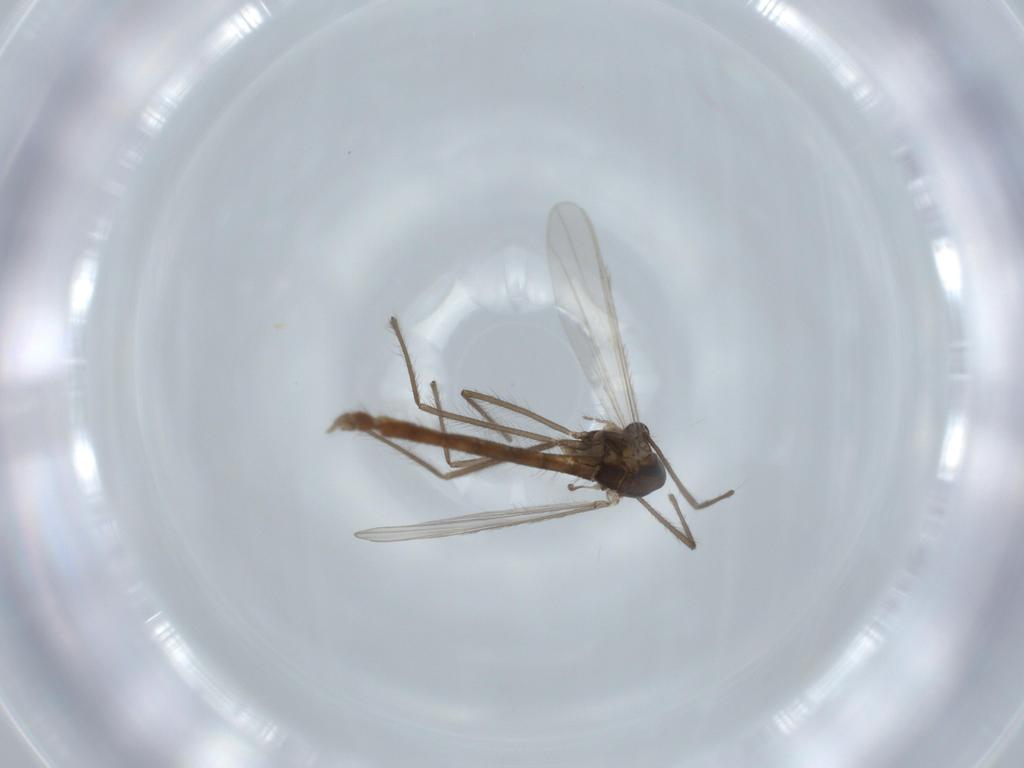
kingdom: Animalia
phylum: Arthropoda
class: Insecta
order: Diptera
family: Chironomidae
